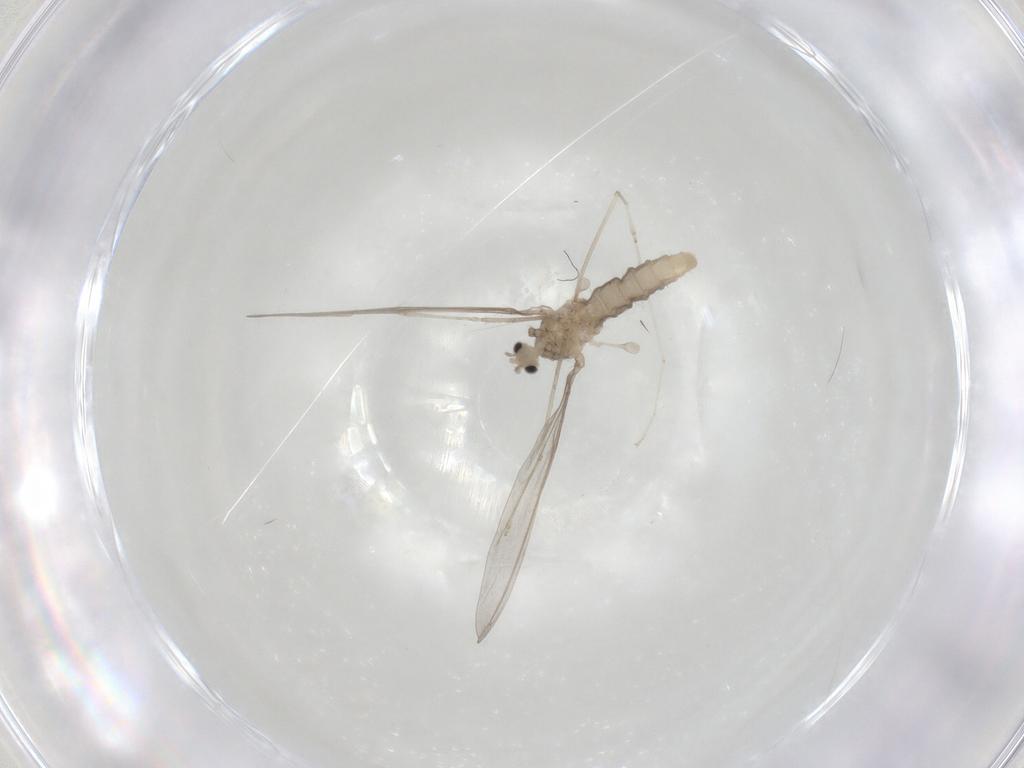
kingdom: Animalia
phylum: Arthropoda
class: Insecta
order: Diptera
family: Cecidomyiidae
